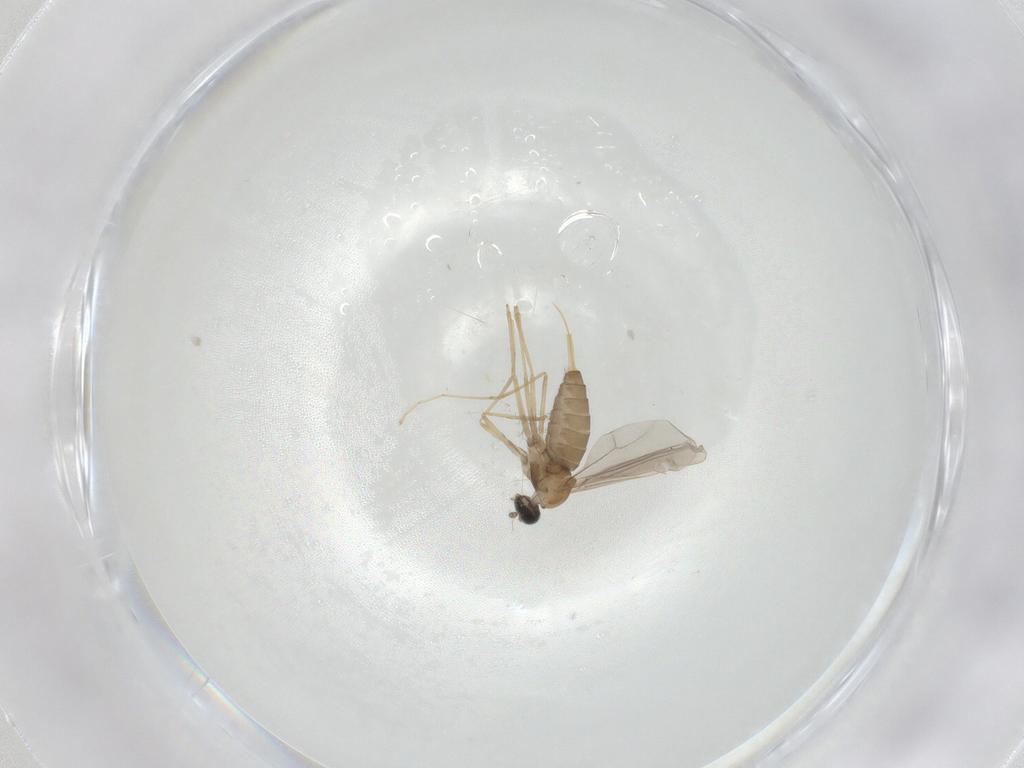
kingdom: Animalia
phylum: Arthropoda
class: Insecta
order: Diptera
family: Cecidomyiidae
